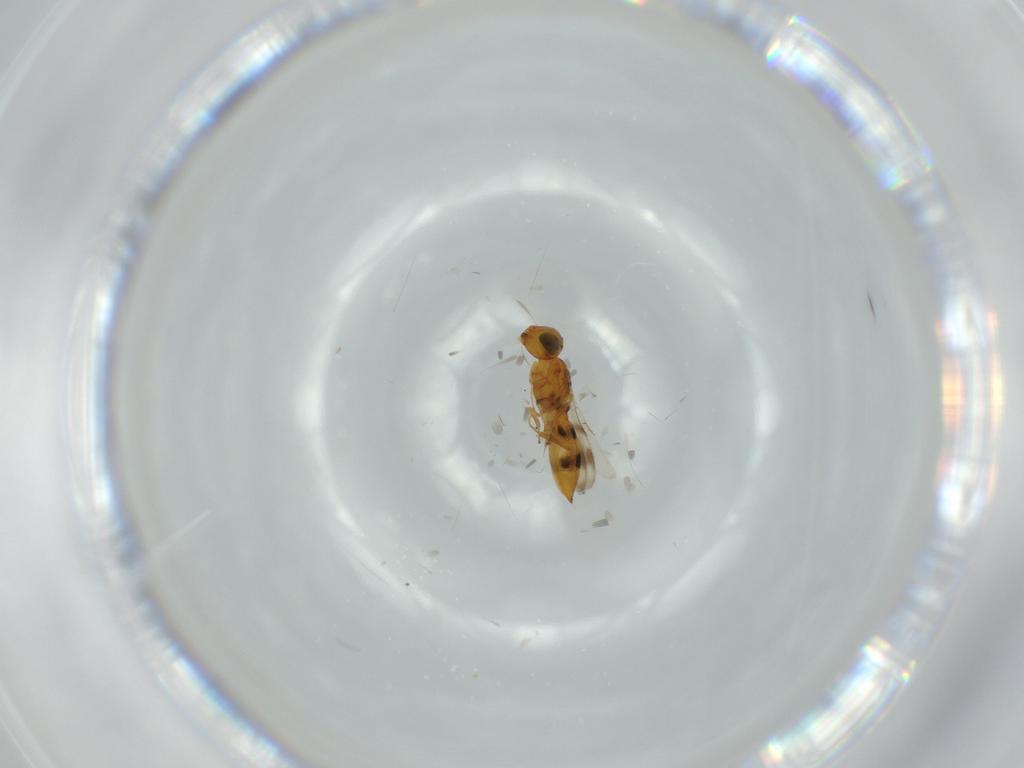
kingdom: Animalia
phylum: Arthropoda
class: Insecta
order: Hymenoptera
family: Scelionidae
